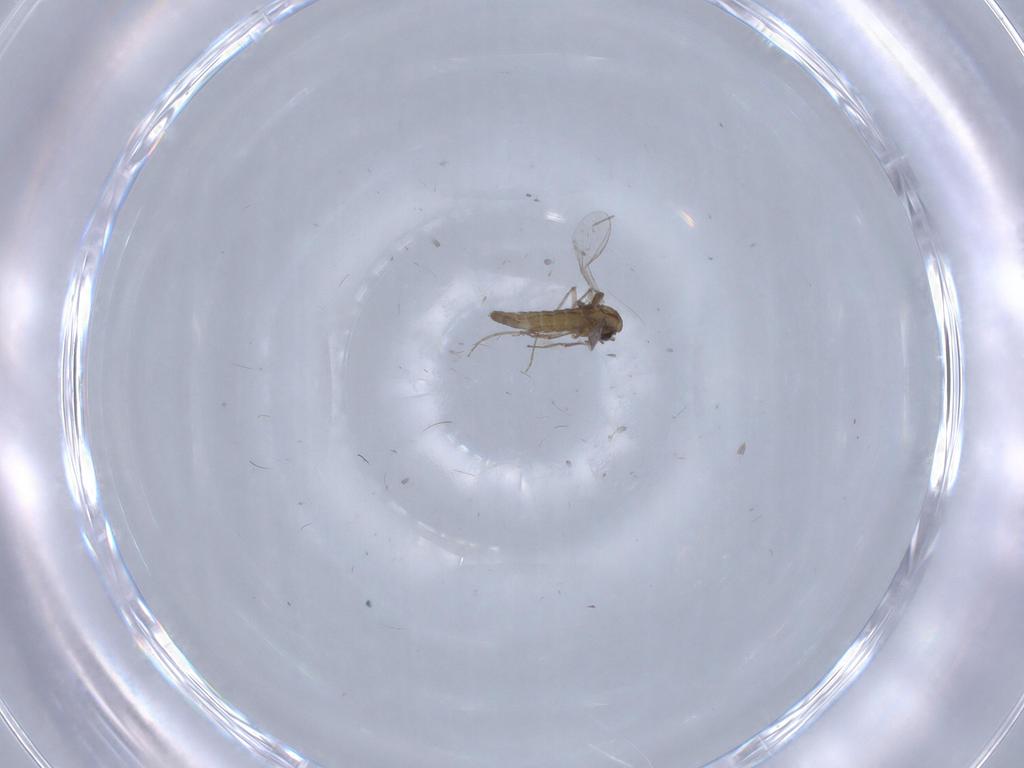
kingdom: Animalia
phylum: Arthropoda
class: Insecta
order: Diptera
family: Chironomidae
